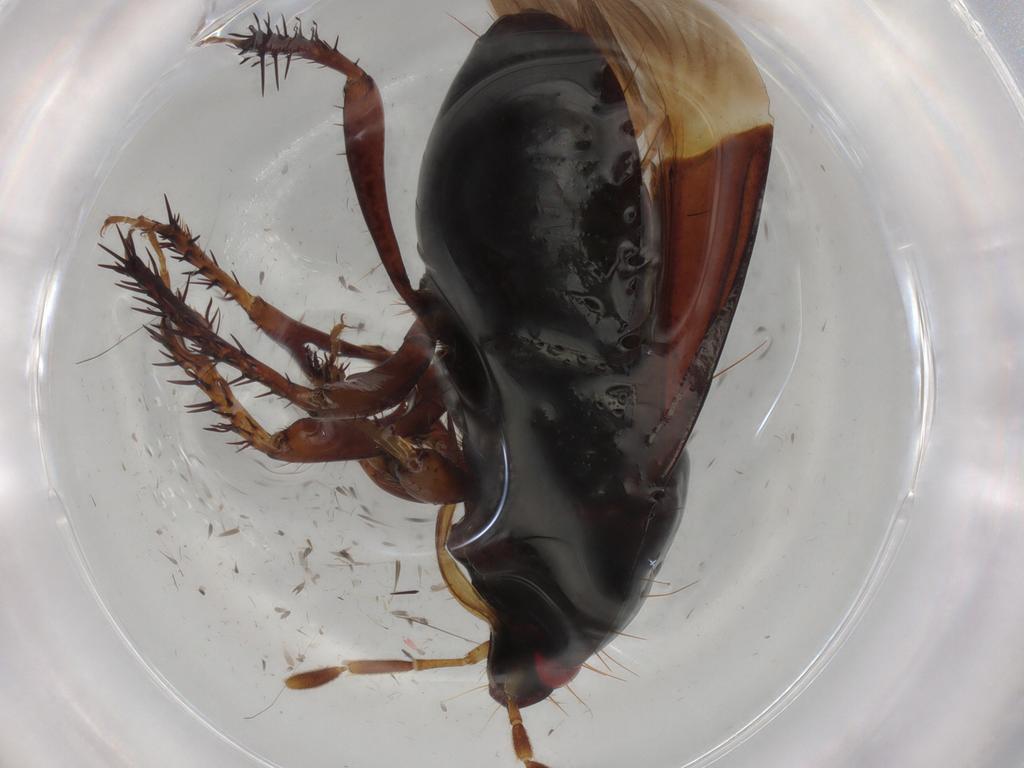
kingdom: Animalia
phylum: Arthropoda
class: Insecta
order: Hemiptera
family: Cydnidae
